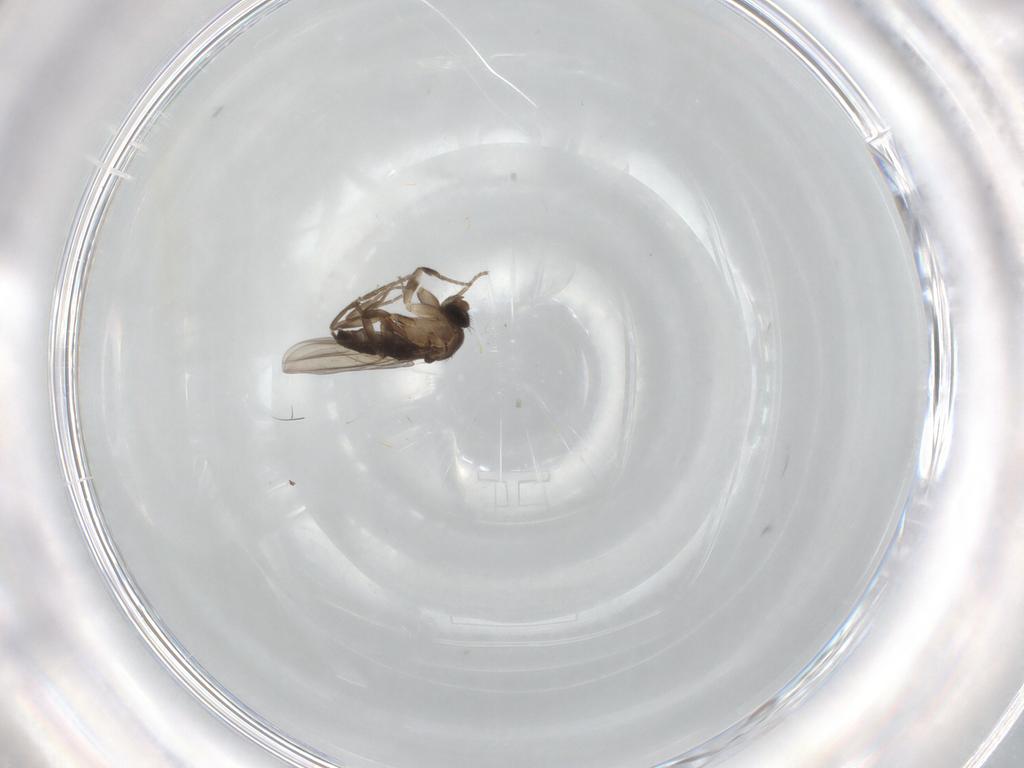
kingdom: Animalia
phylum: Arthropoda
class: Insecta
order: Diptera
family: Phoridae
